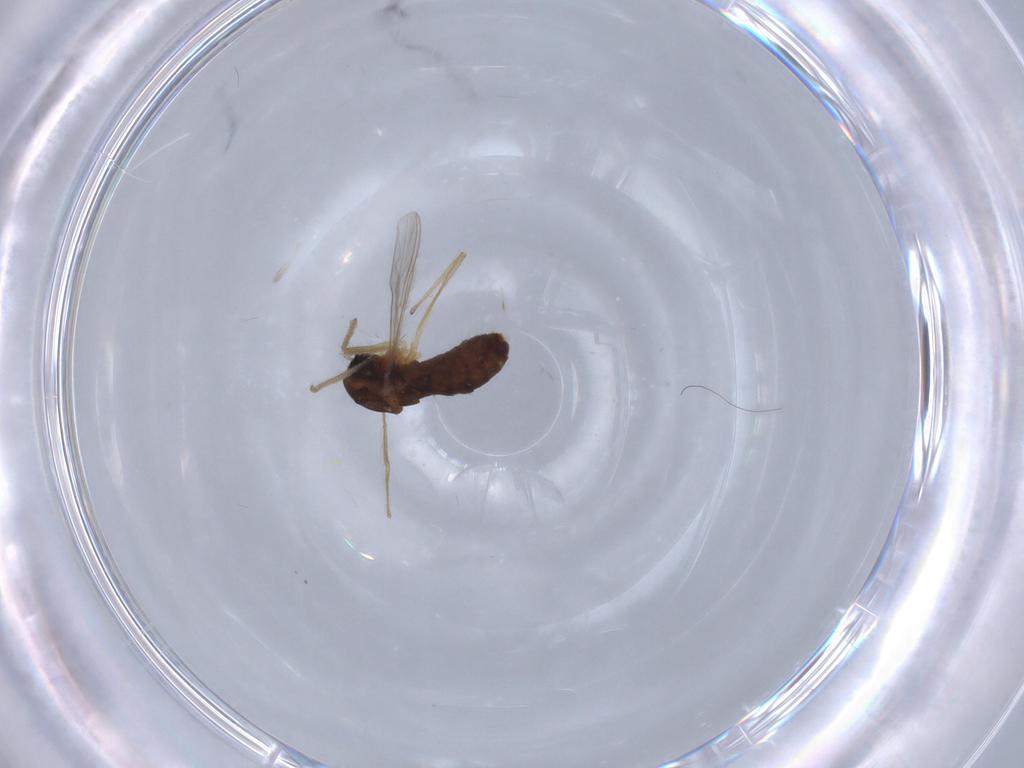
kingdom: Animalia
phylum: Arthropoda
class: Insecta
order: Diptera
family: Chironomidae
